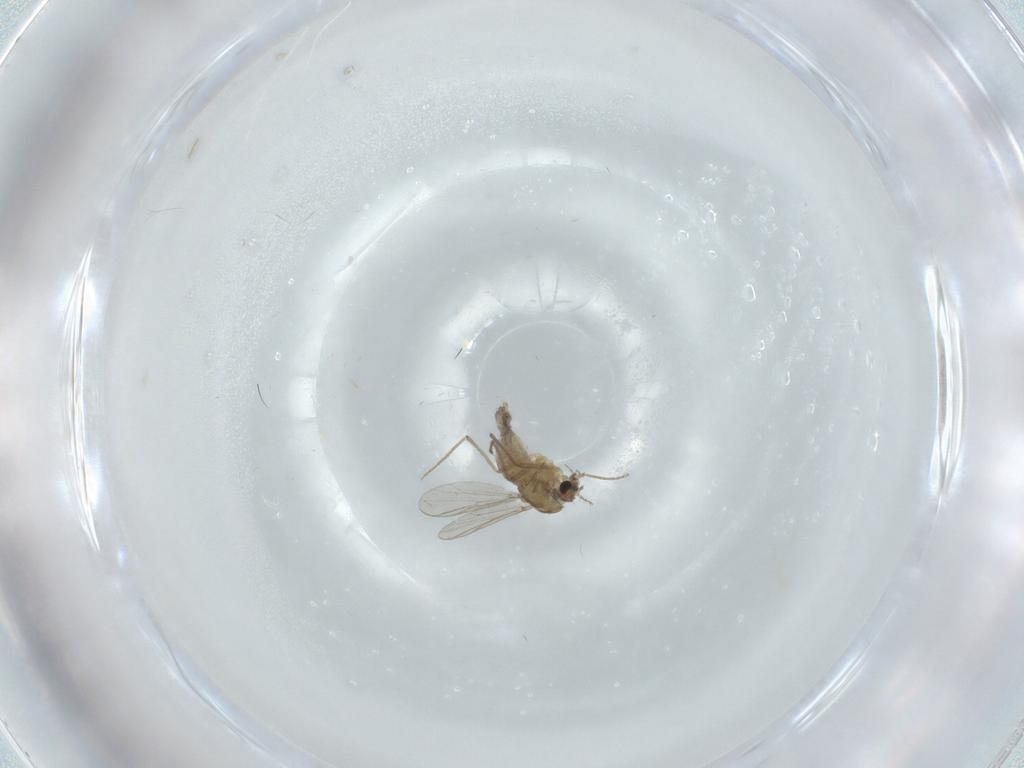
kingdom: Animalia
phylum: Arthropoda
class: Insecta
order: Diptera
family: Chironomidae
